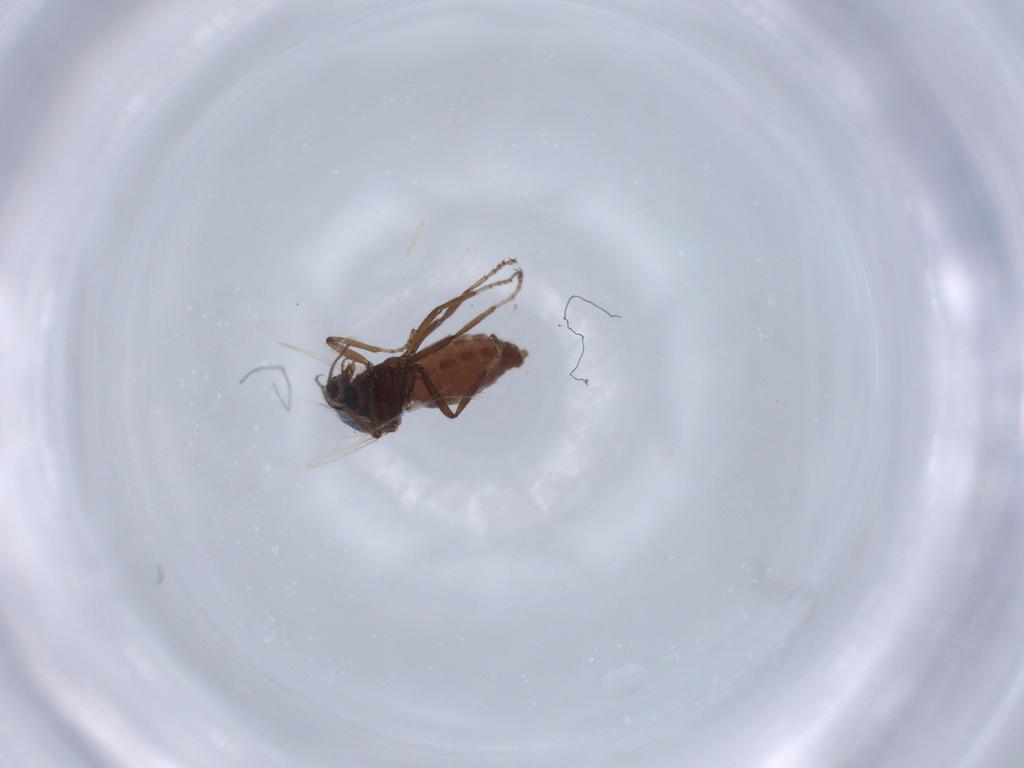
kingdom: Animalia
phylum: Arthropoda
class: Insecta
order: Diptera
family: Ceratopogonidae
